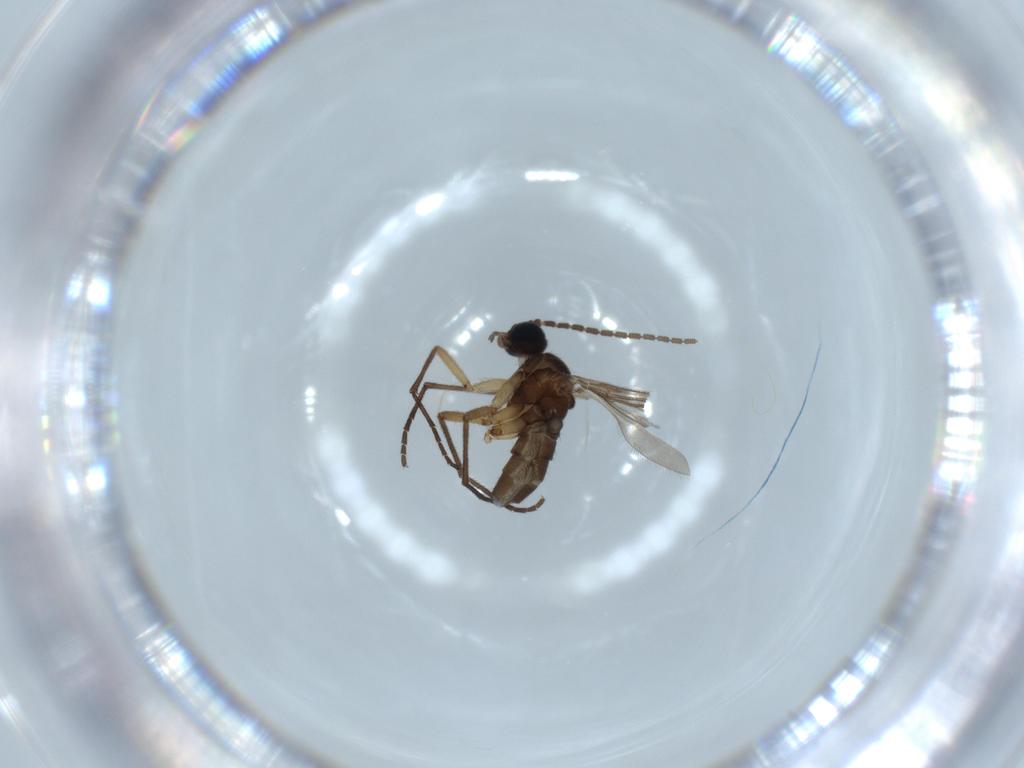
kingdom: Animalia
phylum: Arthropoda
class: Insecta
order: Diptera
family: Sciaridae
